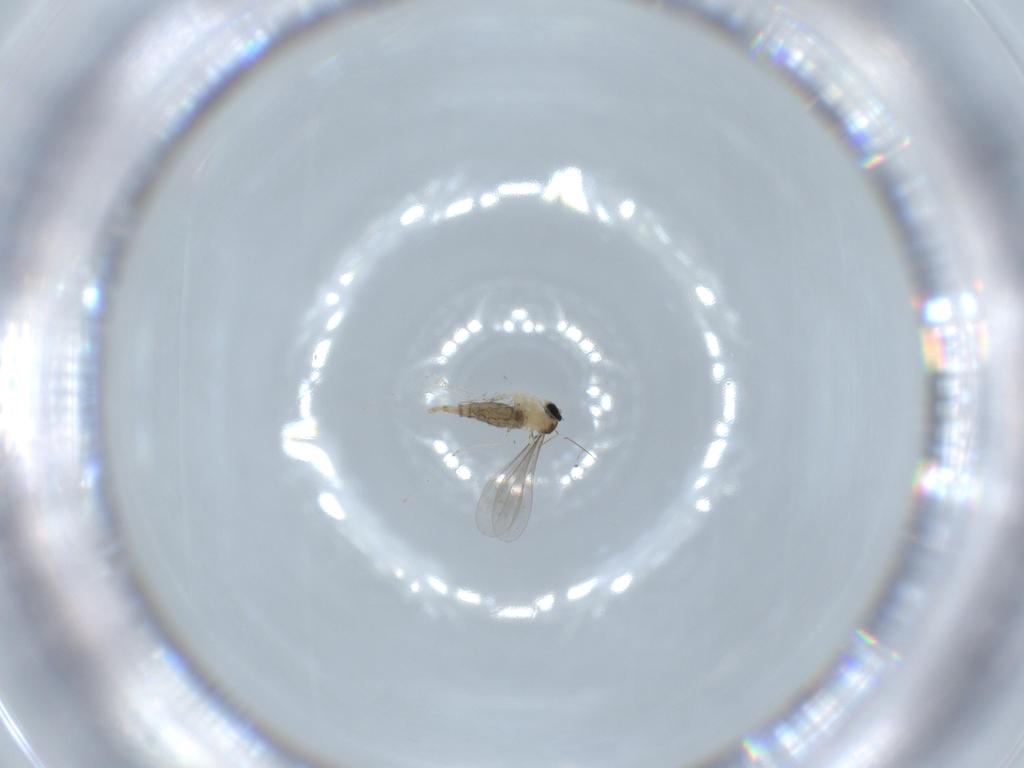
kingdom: Animalia
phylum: Arthropoda
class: Insecta
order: Diptera
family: Cecidomyiidae
